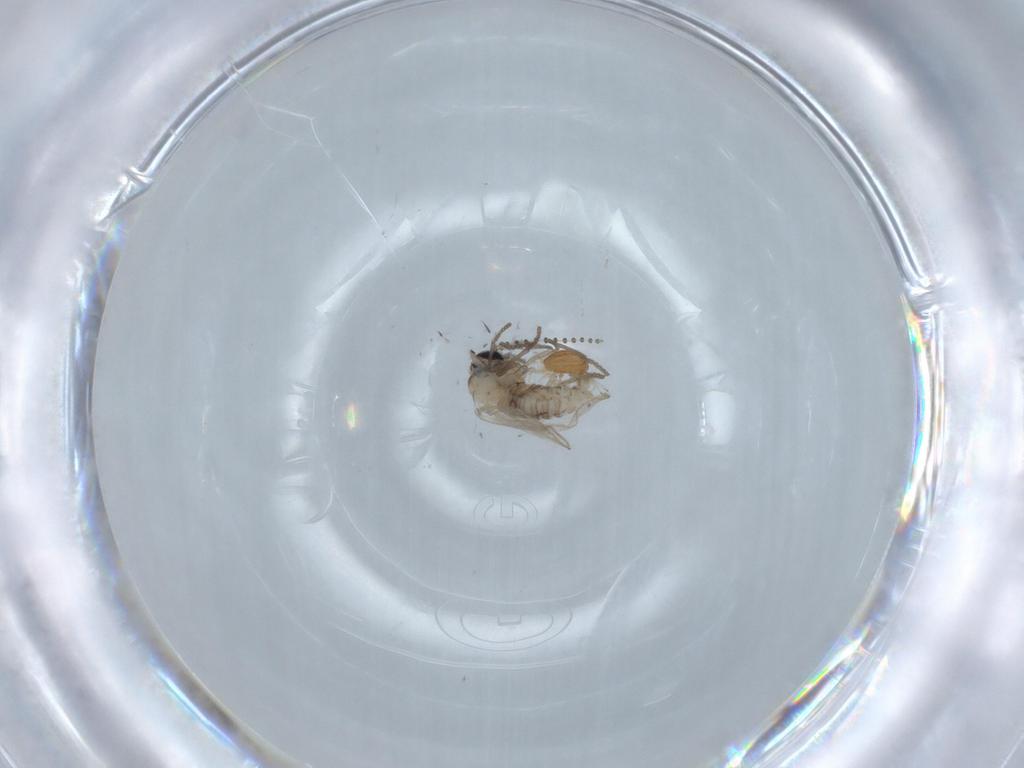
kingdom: Animalia
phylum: Arthropoda
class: Insecta
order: Diptera
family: Psychodidae
